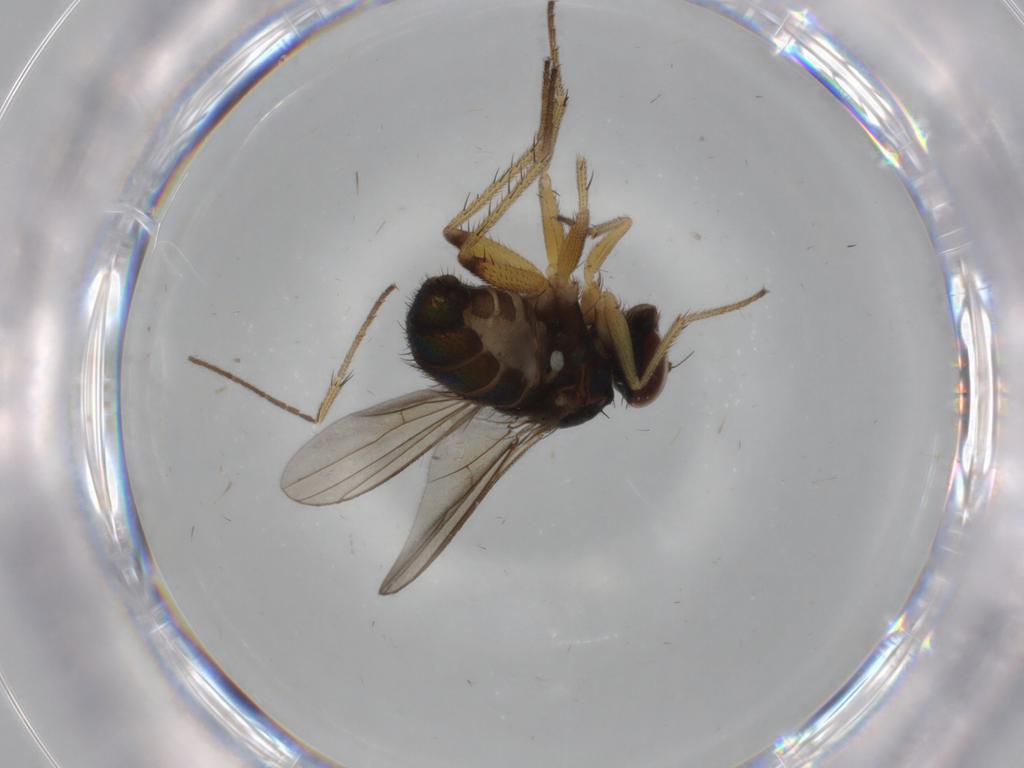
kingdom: Animalia
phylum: Arthropoda
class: Insecta
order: Diptera
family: Dolichopodidae
